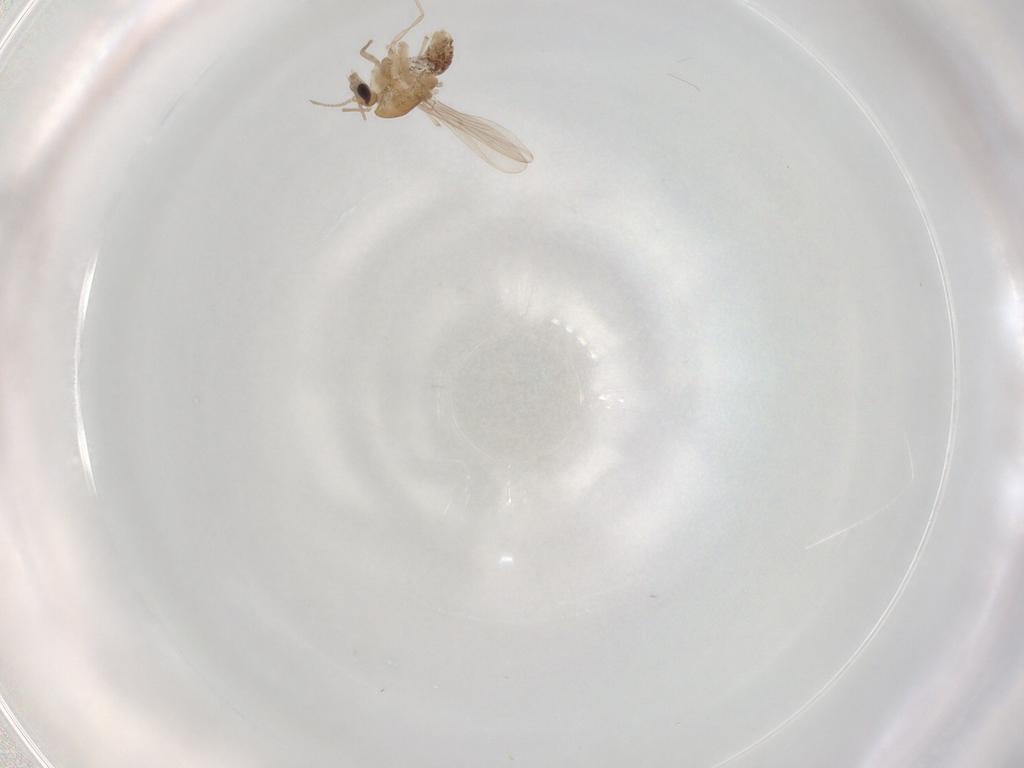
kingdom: Animalia
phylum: Arthropoda
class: Insecta
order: Diptera
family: Chironomidae
